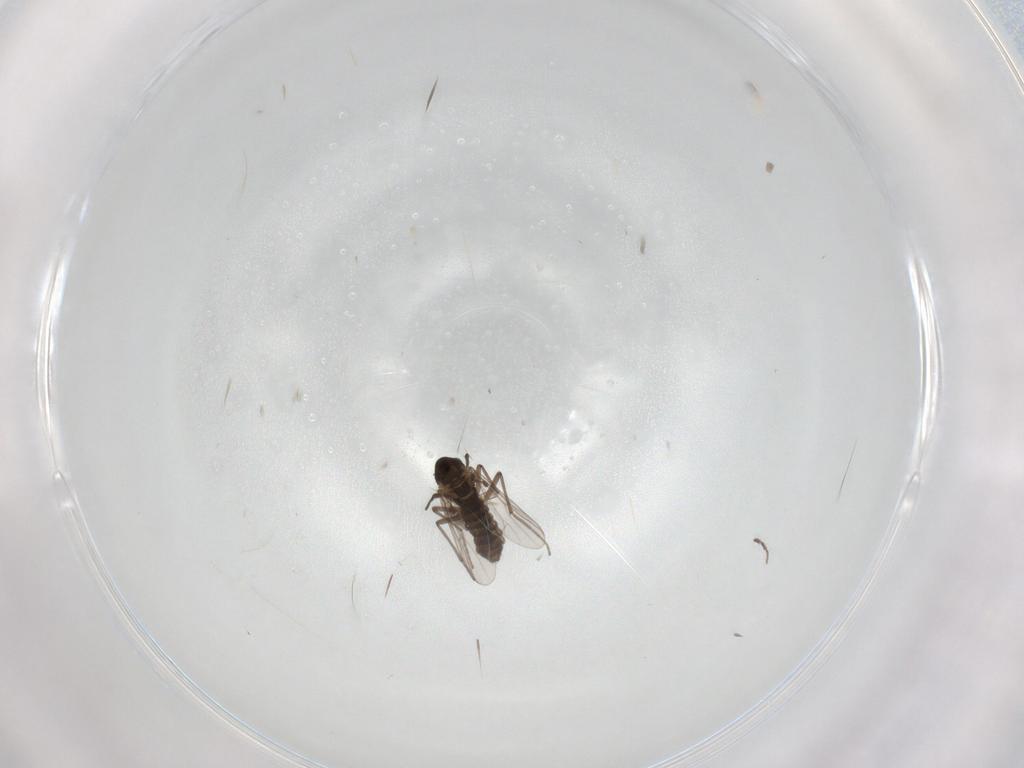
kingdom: Animalia
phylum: Arthropoda
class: Insecta
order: Diptera
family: Chironomidae
